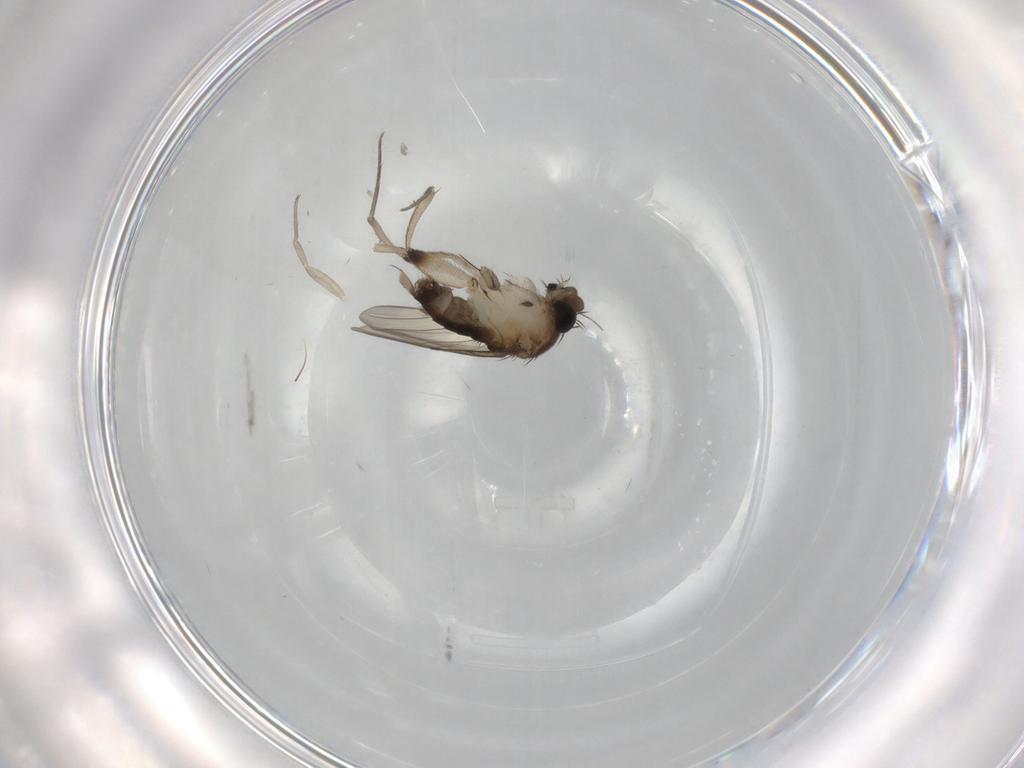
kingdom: Animalia
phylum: Arthropoda
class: Insecta
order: Diptera
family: Phoridae
